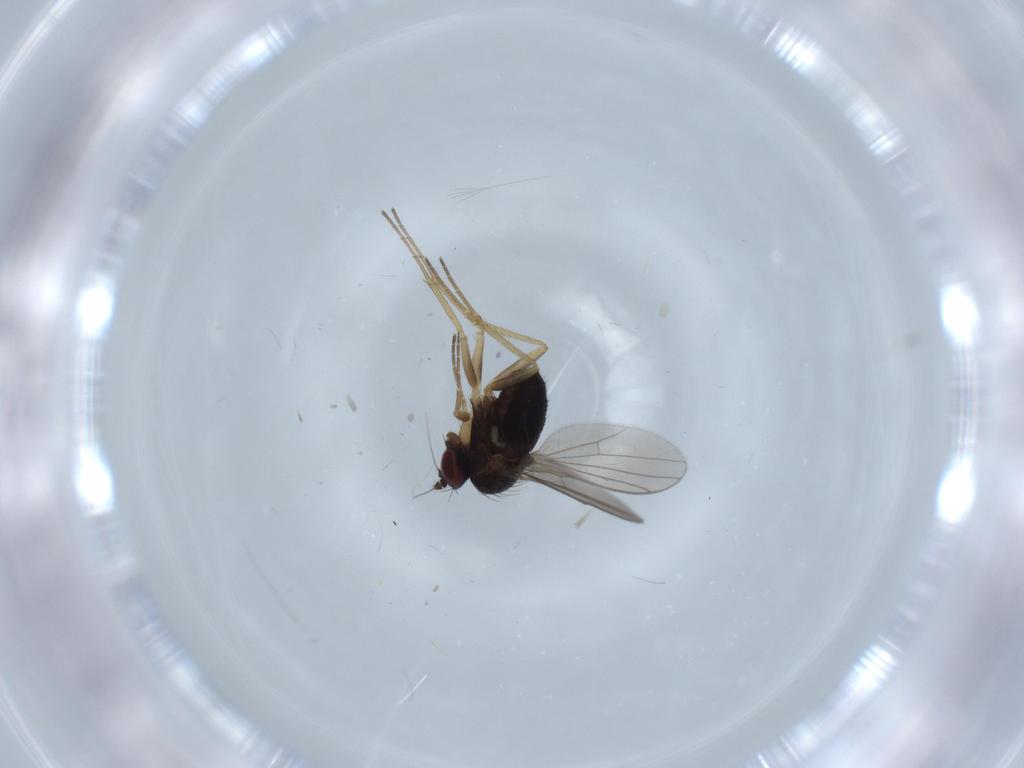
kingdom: Animalia
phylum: Arthropoda
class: Insecta
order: Diptera
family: Dolichopodidae
